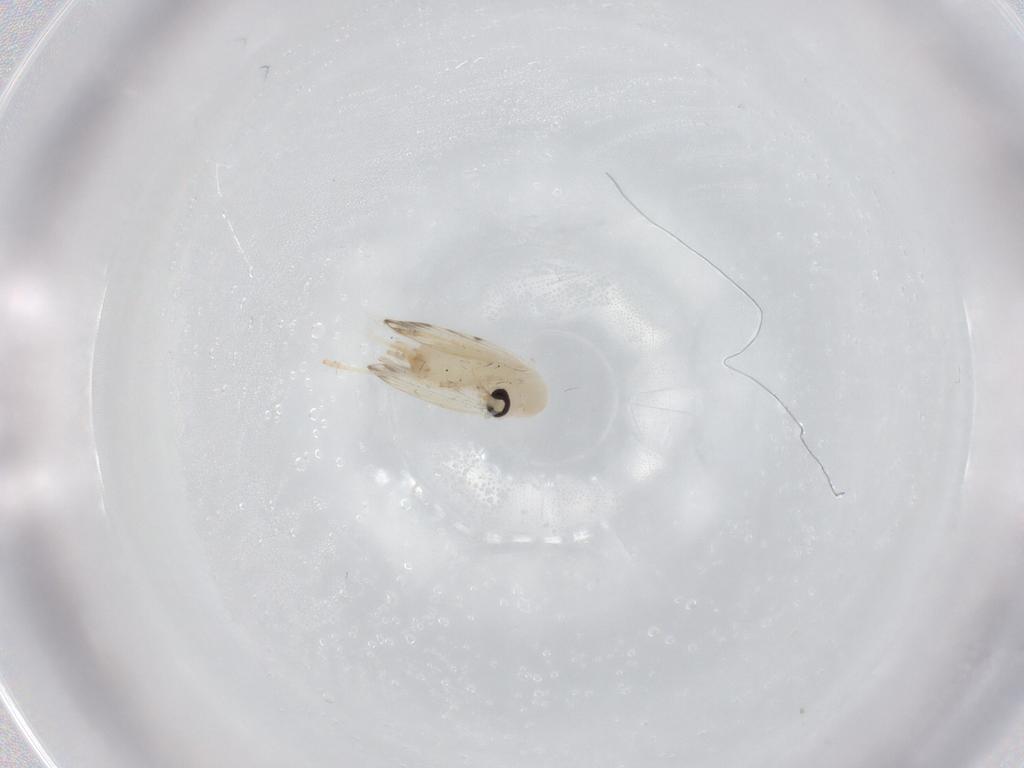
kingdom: Animalia
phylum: Arthropoda
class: Insecta
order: Diptera
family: Psychodidae
